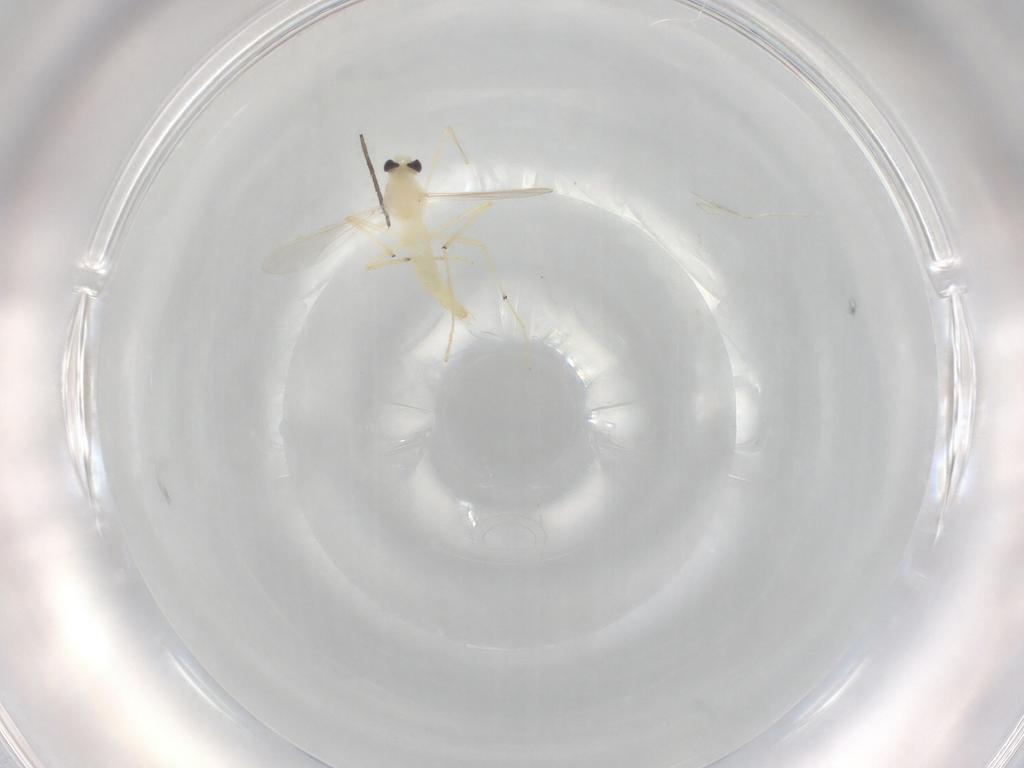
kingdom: Animalia
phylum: Arthropoda
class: Insecta
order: Diptera
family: Chironomidae
